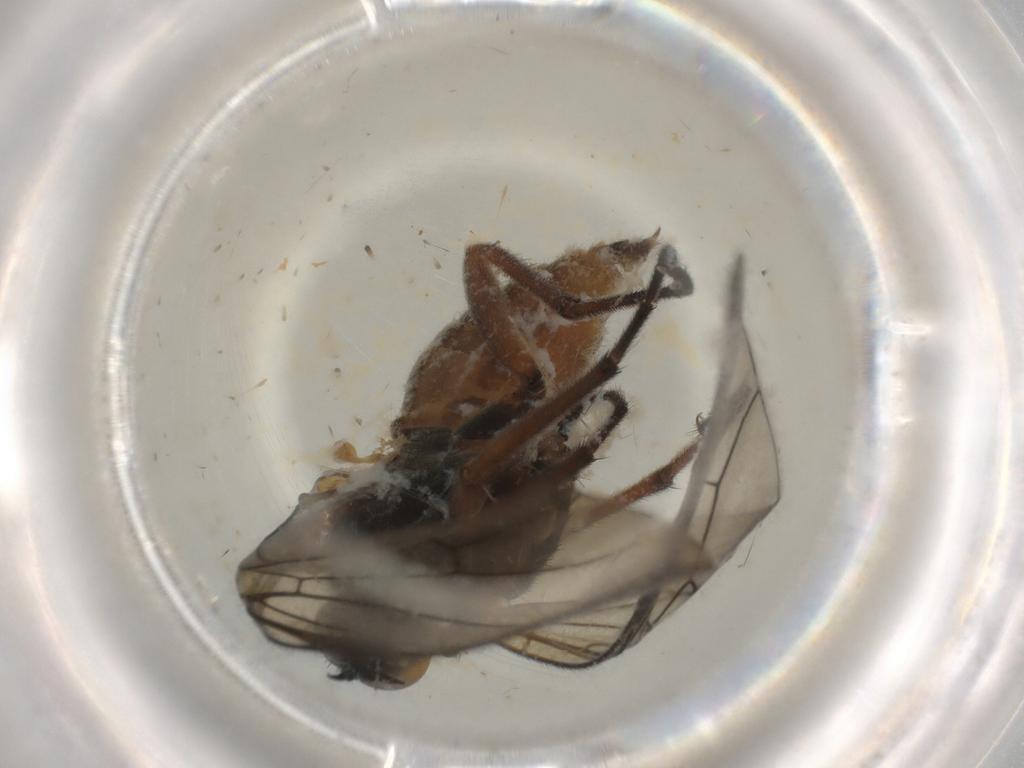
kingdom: Animalia
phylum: Arthropoda
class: Insecta
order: Diptera
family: Empididae
